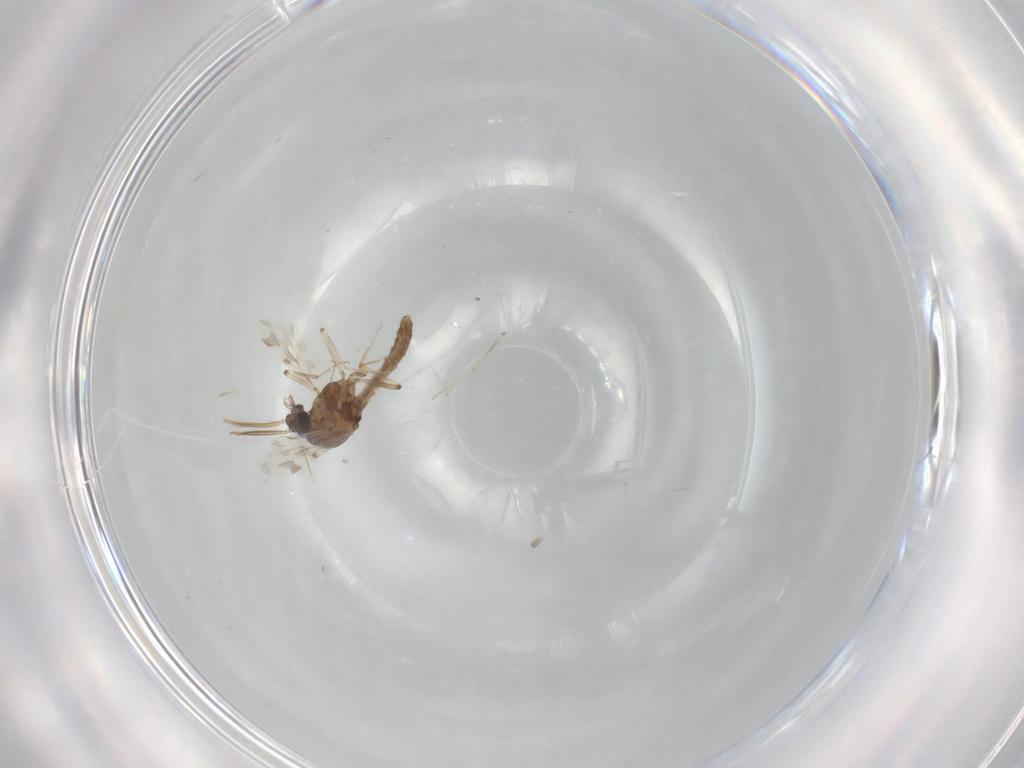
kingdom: Animalia
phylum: Arthropoda
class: Insecta
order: Diptera
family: Ceratopogonidae
